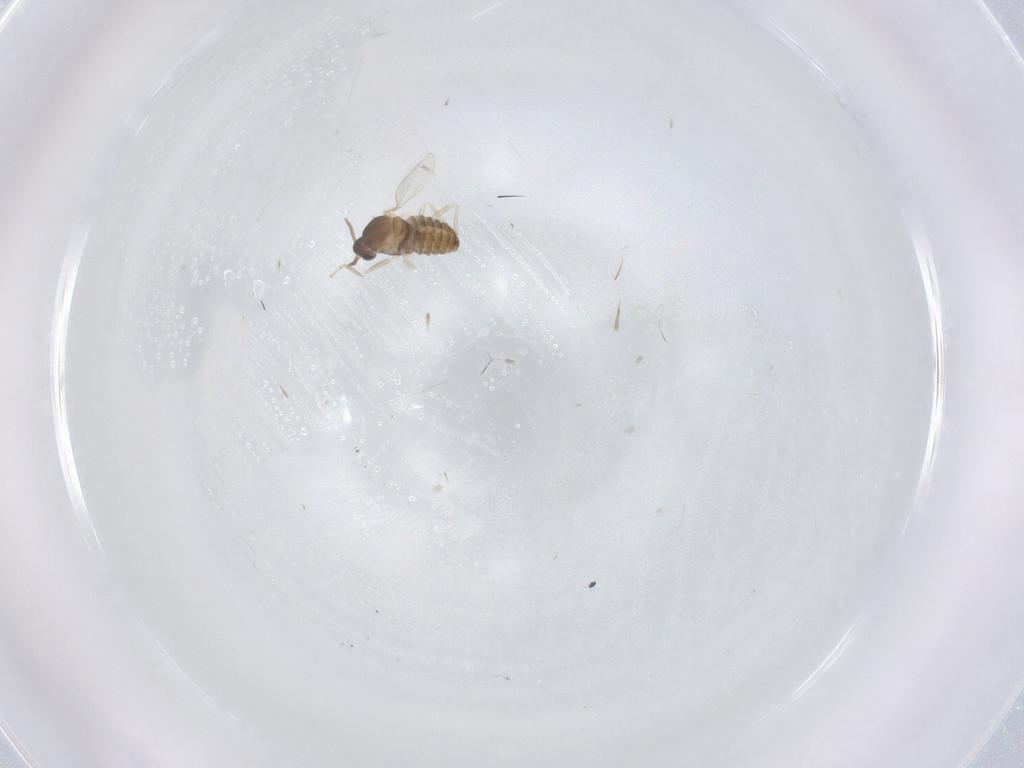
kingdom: Animalia
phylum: Arthropoda
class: Insecta
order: Diptera
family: Cecidomyiidae
